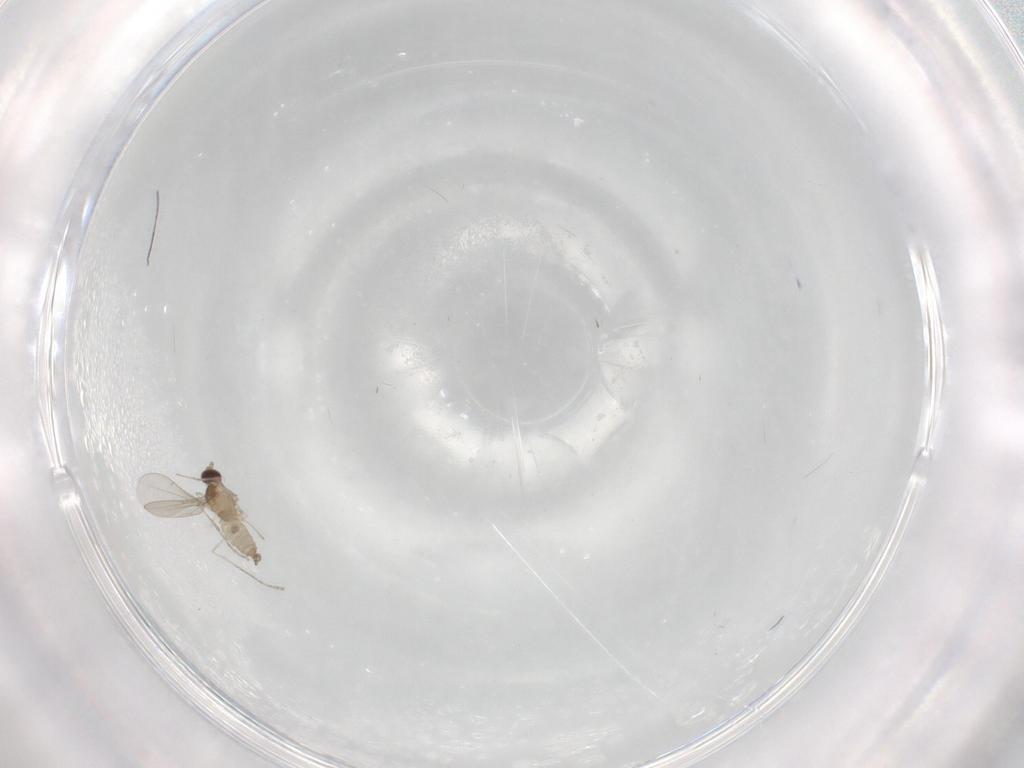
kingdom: Animalia
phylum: Arthropoda
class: Insecta
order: Diptera
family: Cecidomyiidae
